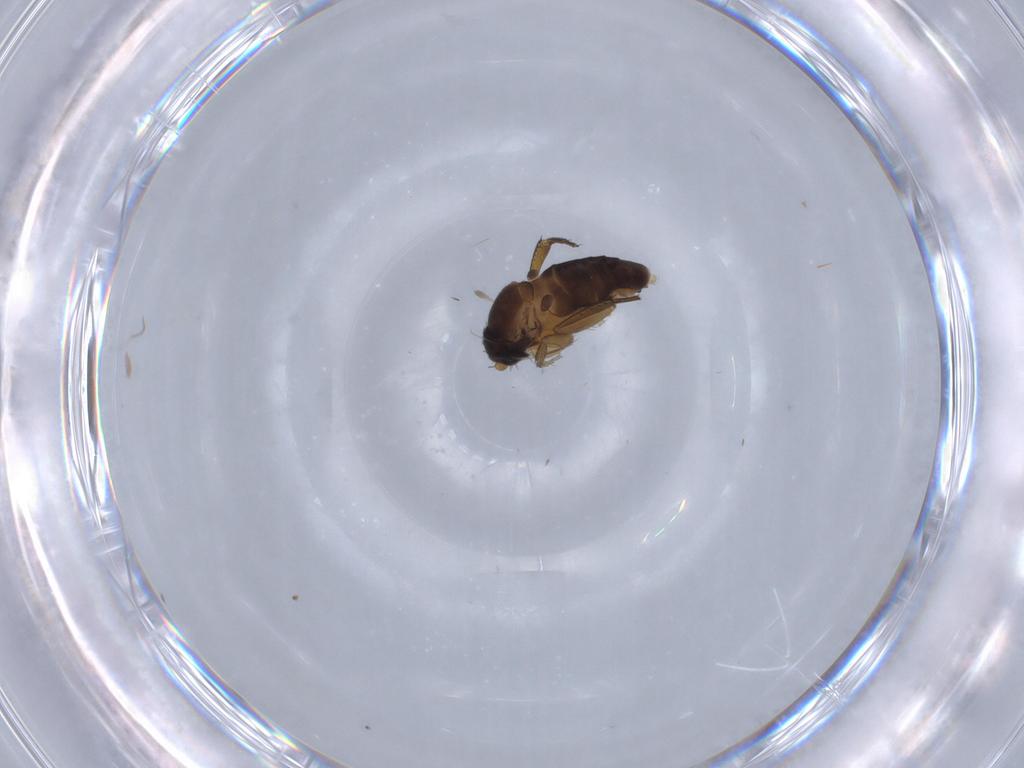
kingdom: Animalia
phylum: Arthropoda
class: Insecta
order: Diptera
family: Phoridae
